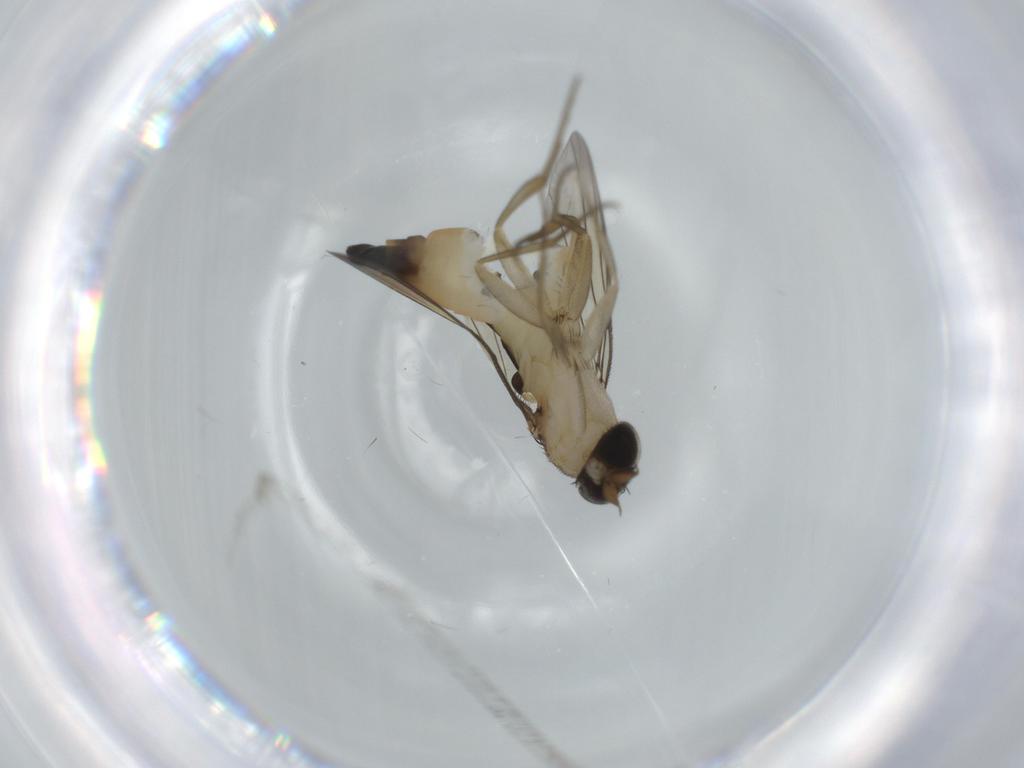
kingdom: Animalia
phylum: Arthropoda
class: Insecta
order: Diptera
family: Phoridae
